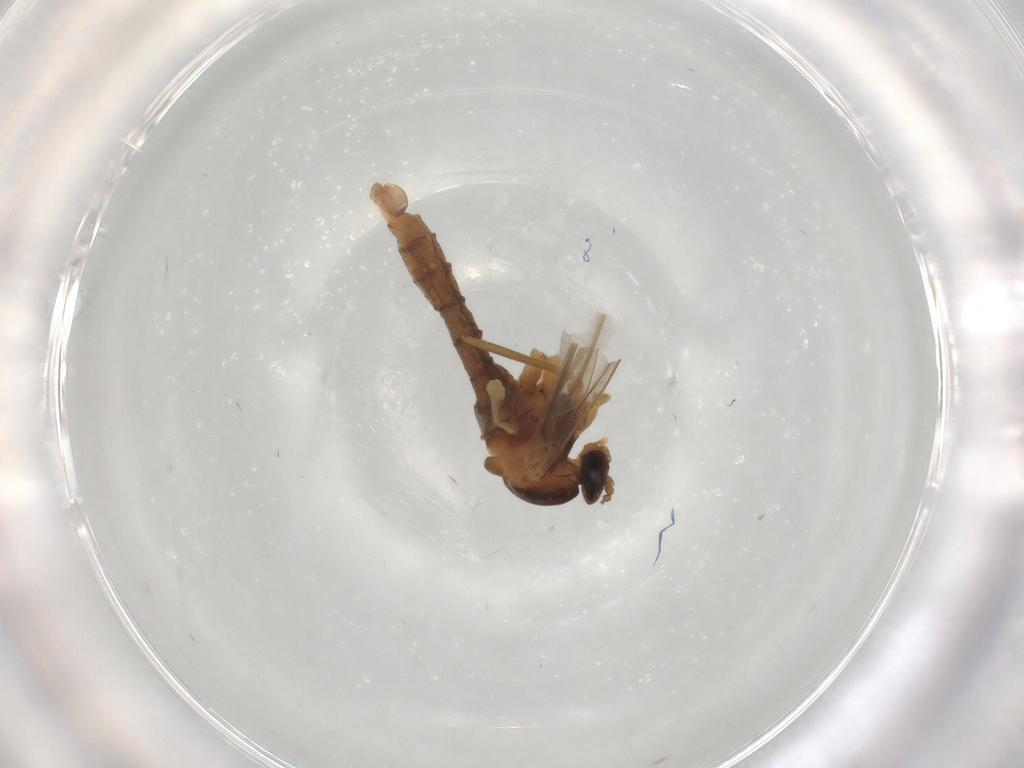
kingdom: Animalia
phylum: Arthropoda
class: Insecta
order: Diptera
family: Cecidomyiidae
